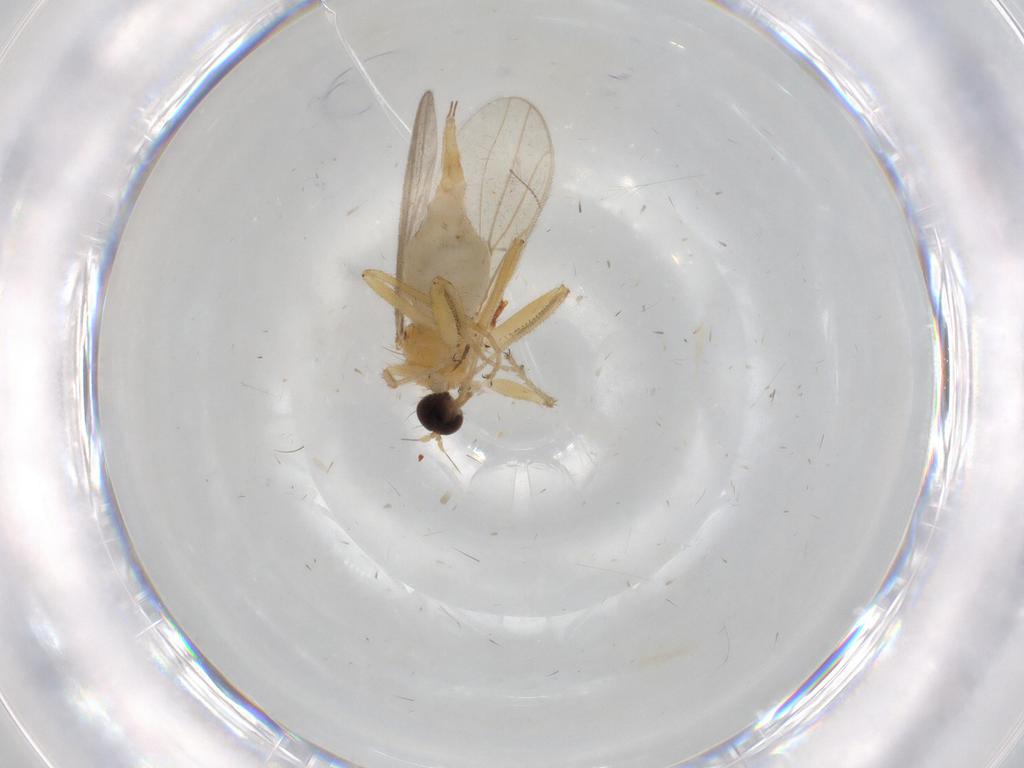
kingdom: Animalia
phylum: Arthropoda
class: Insecta
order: Diptera
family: Hybotidae
